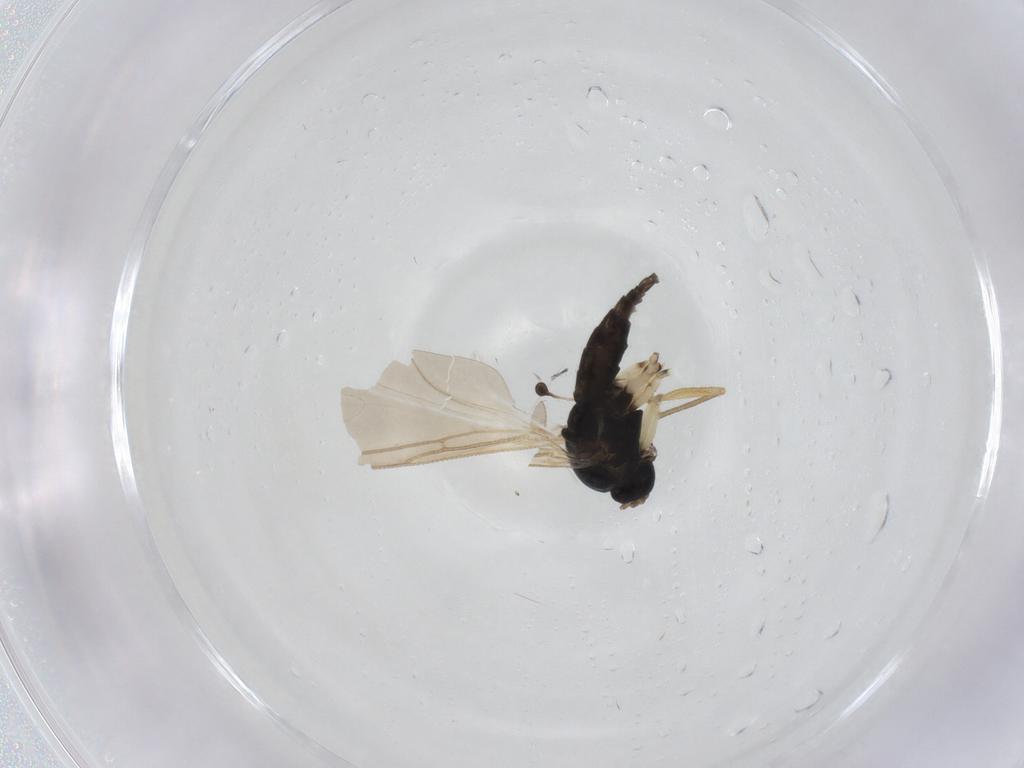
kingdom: Animalia
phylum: Arthropoda
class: Insecta
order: Diptera
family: Sciaridae
